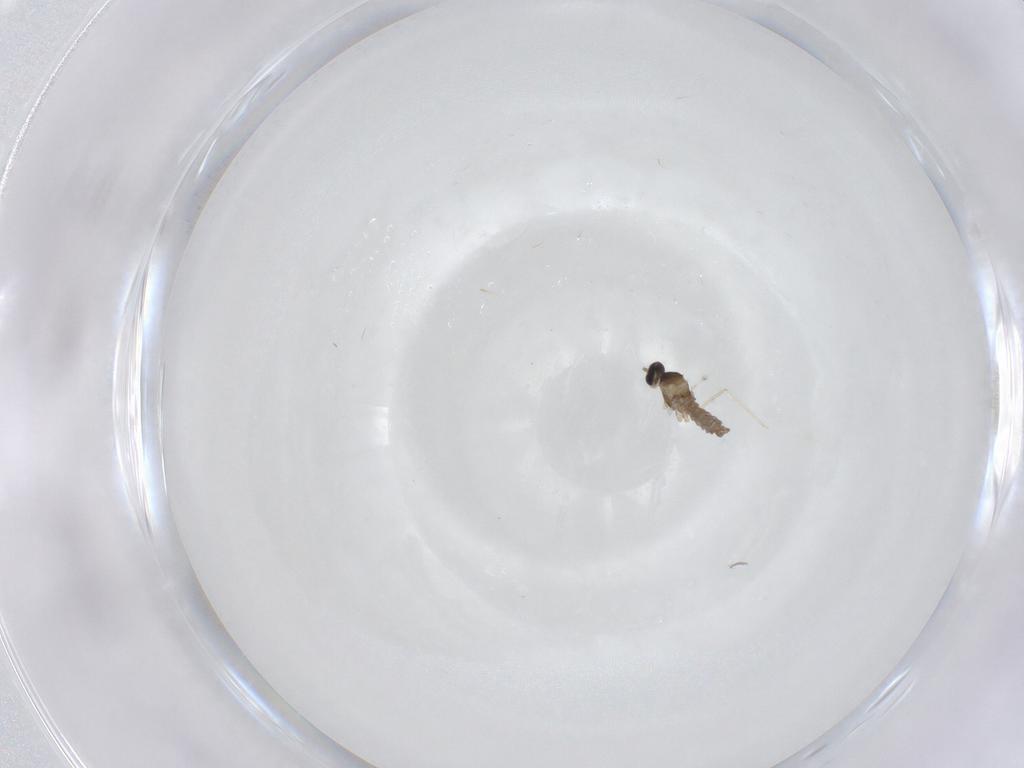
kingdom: Animalia
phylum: Arthropoda
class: Insecta
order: Diptera
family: Cecidomyiidae
